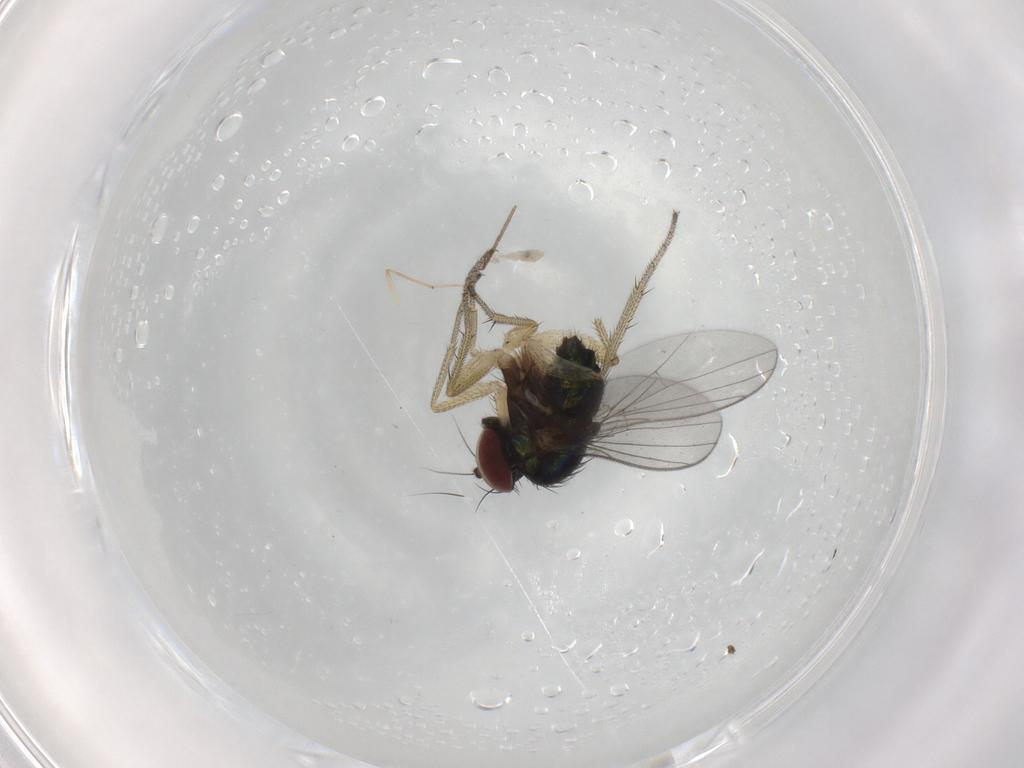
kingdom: Animalia
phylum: Arthropoda
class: Insecta
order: Diptera
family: Dolichopodidae
